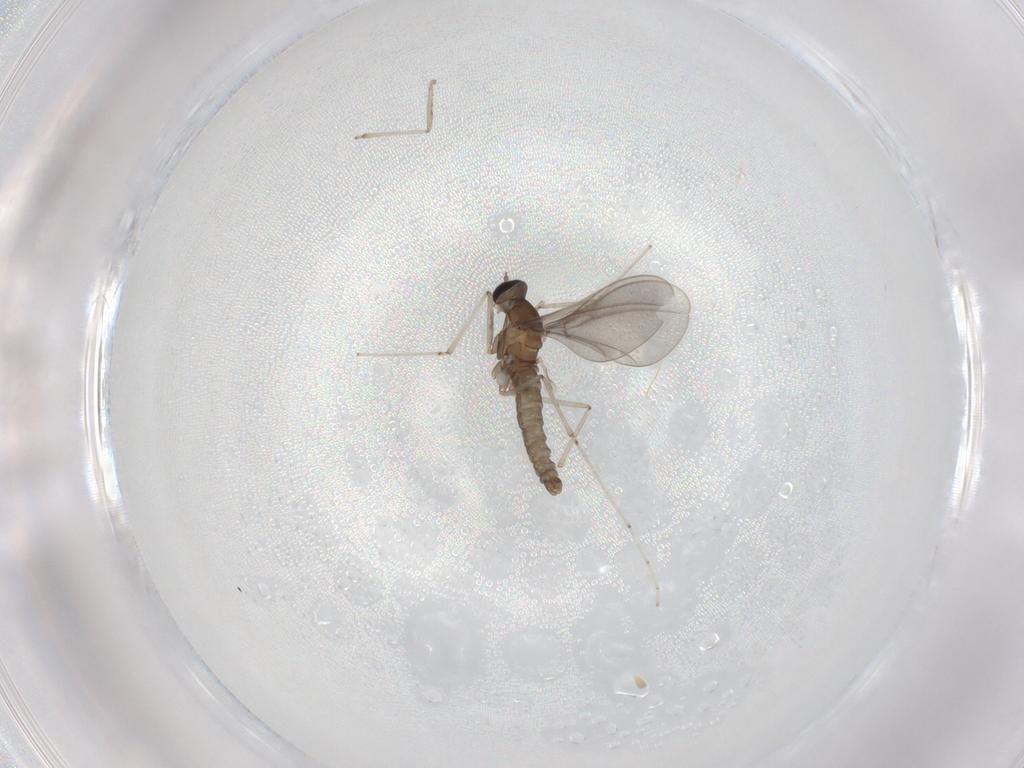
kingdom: Animalia
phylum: Arthropoda
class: Insecta
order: Diptera
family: Cecidomyiidae
